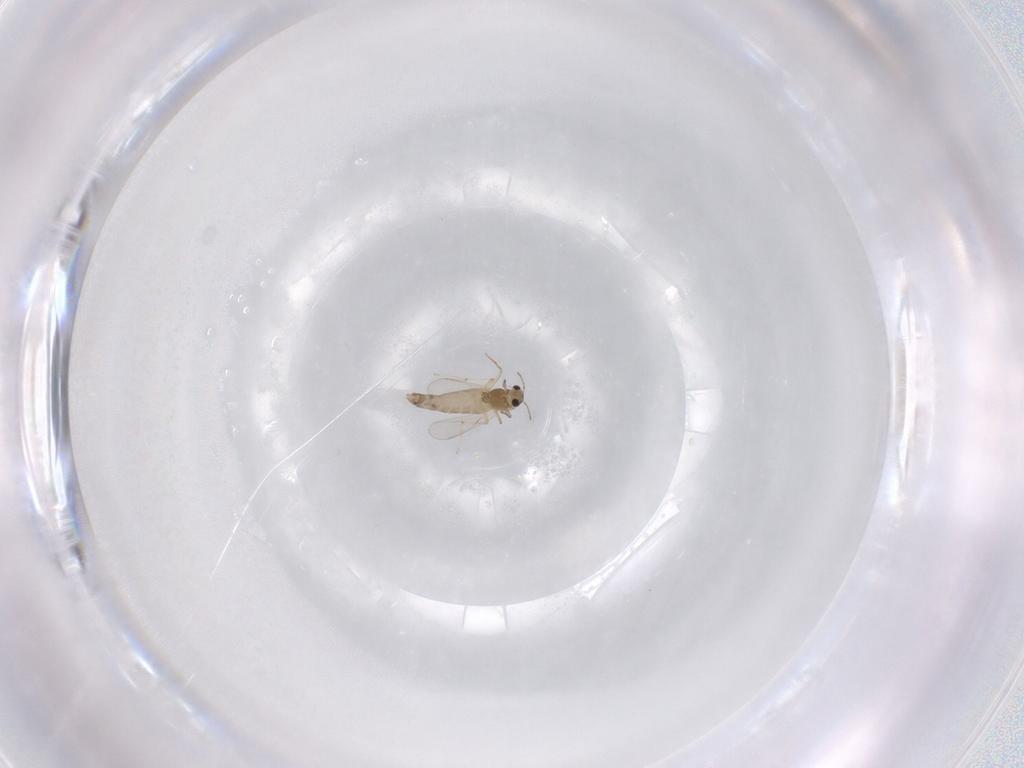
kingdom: Animalia
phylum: Arthropoda
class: Insecta
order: Diptera
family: Chironomidae
